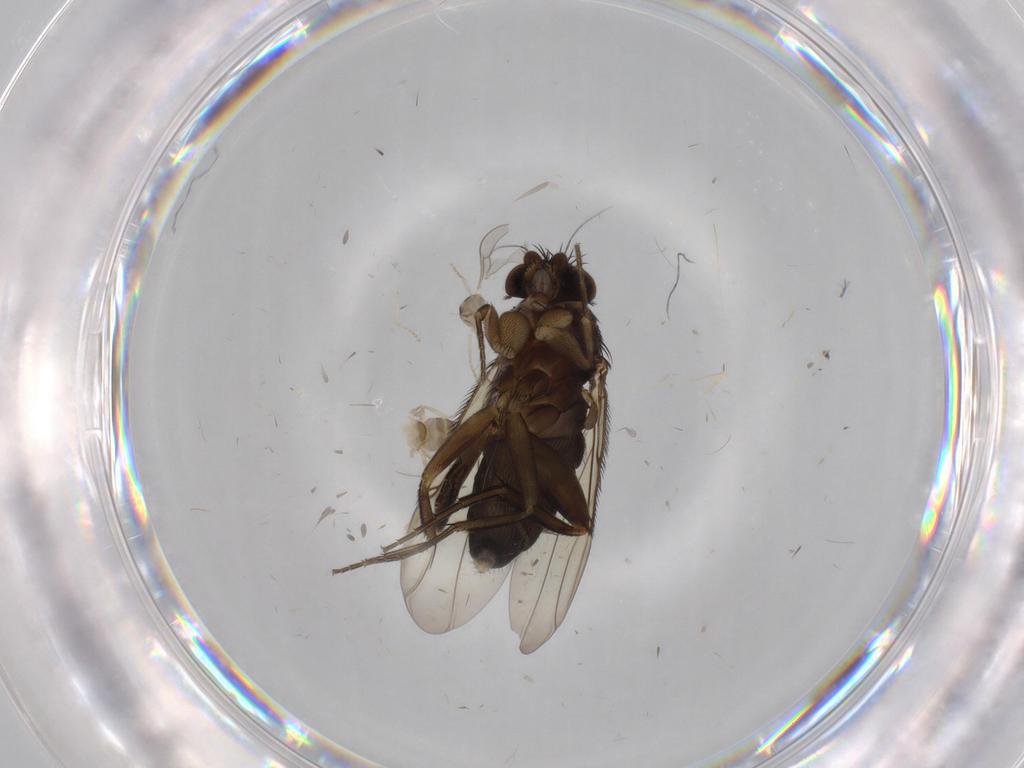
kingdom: Animalia
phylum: Arthropoda
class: Insecta
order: Diptera
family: Phoridae
